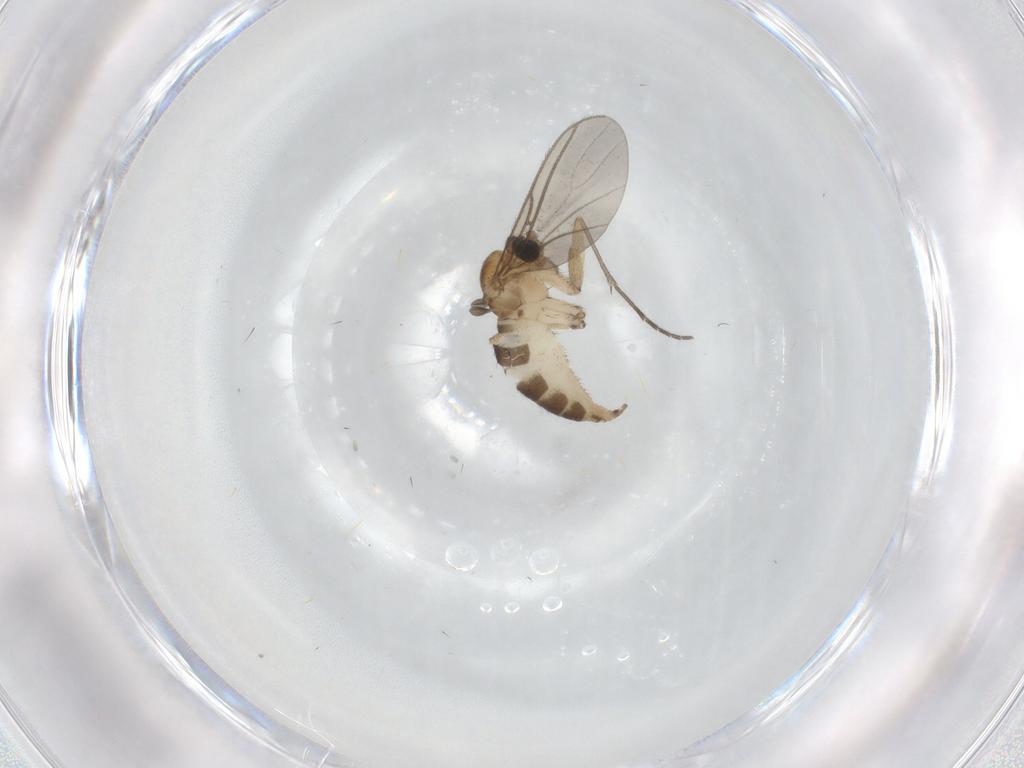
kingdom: Animalia
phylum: Arthropoda
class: Insecta
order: Diptera
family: Sciaridae
